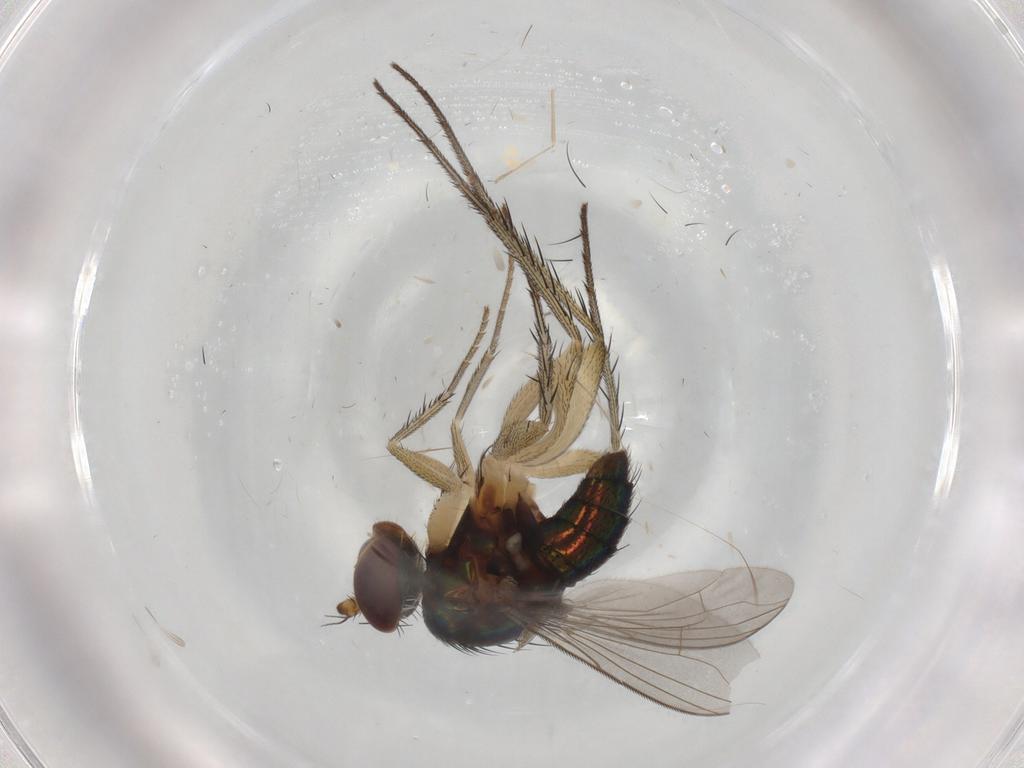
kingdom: Animalia
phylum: Arthropoda
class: Insecta
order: Diptera
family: Dolichopodidae
